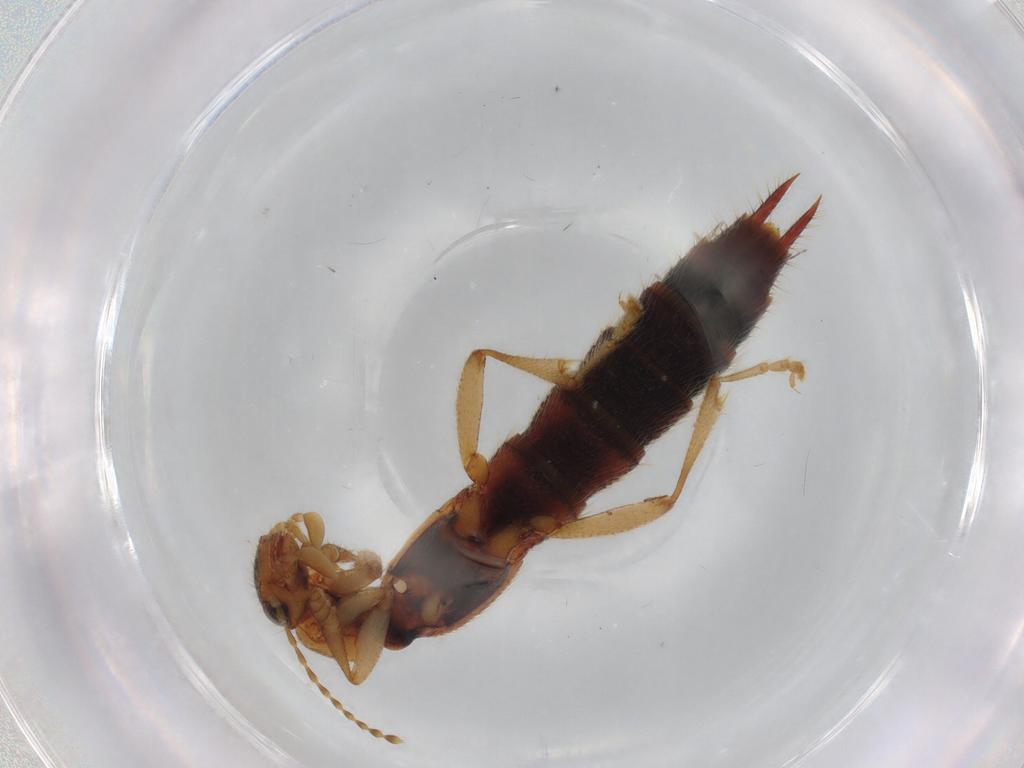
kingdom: Animalia
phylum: Arthropoda
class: Insecta
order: Coleoptera
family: Staphylinidae
